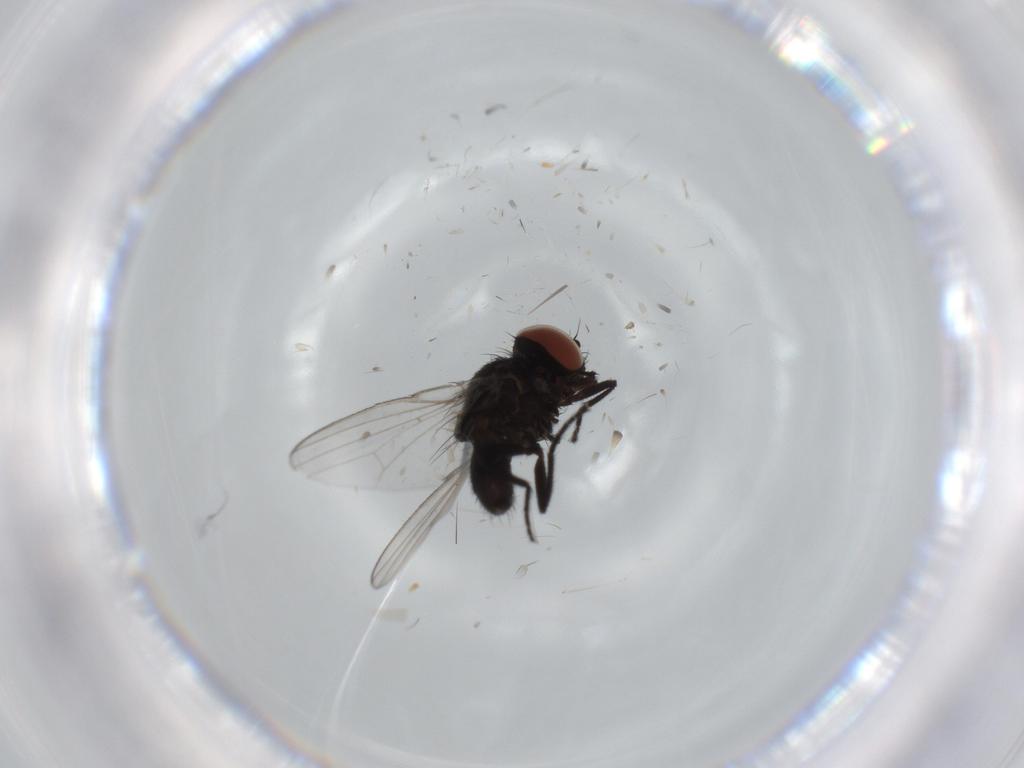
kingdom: Animalia
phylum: Arthropoda
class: Insecta
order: Diptera
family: Milichiidae
